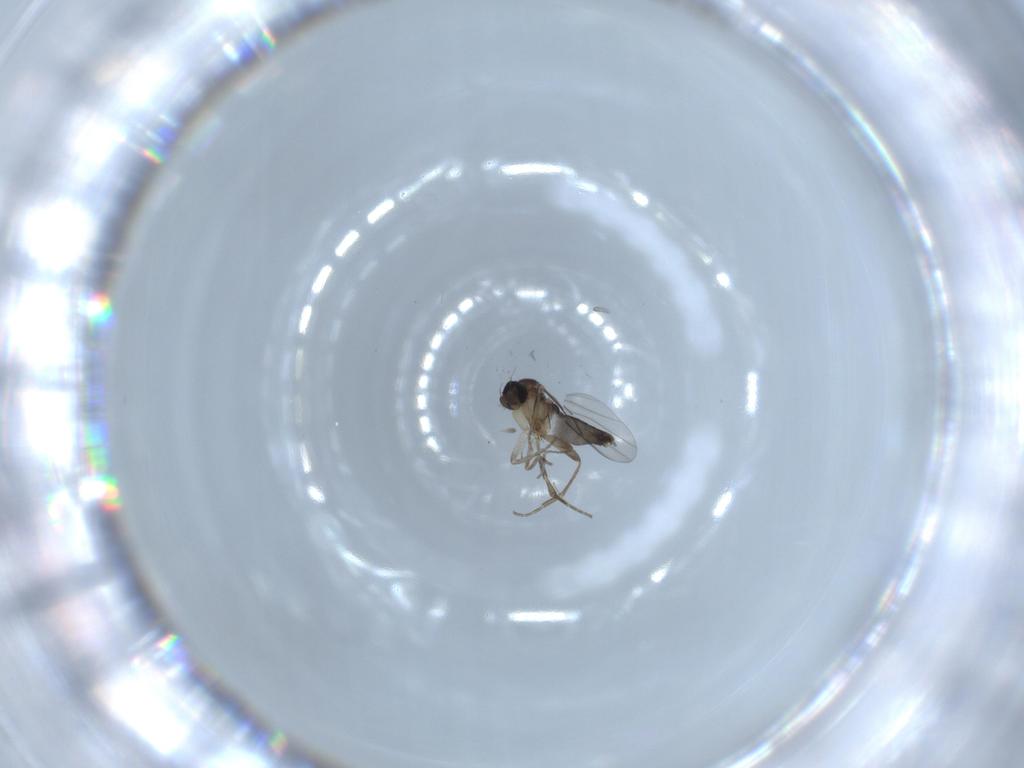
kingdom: Animalia
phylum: Arthropoda
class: Insecta
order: Diptera
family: Phoridae
